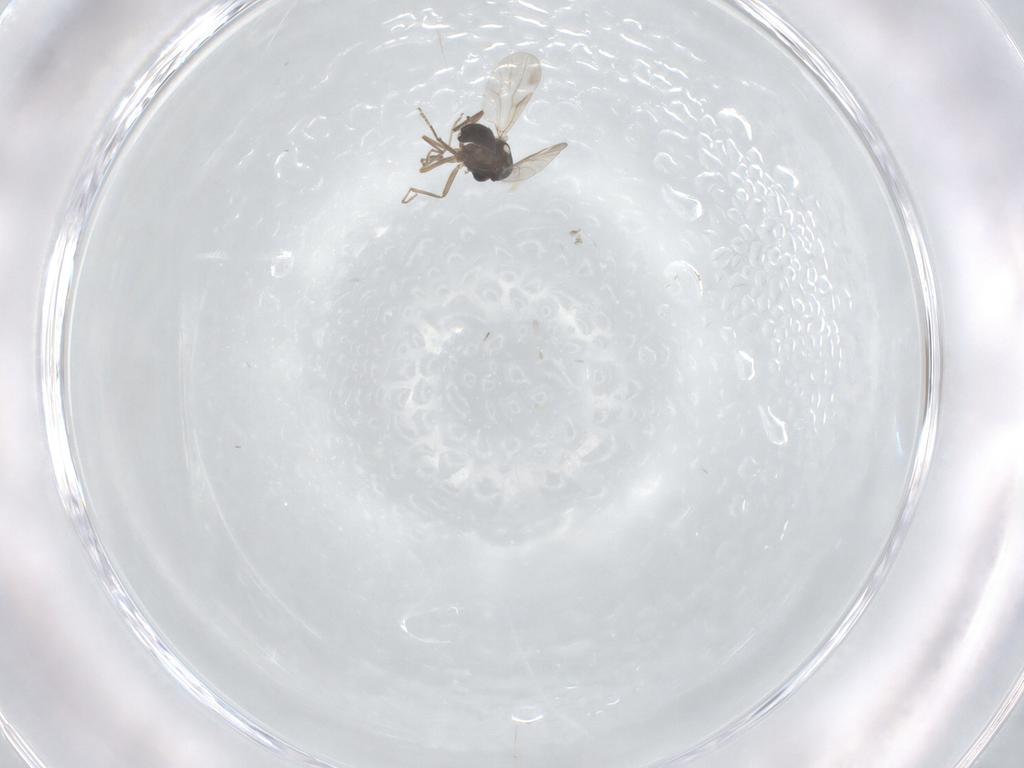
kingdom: Animalia
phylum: Arthropoda
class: Insecta
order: Diptera
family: Ceratopogonidae
